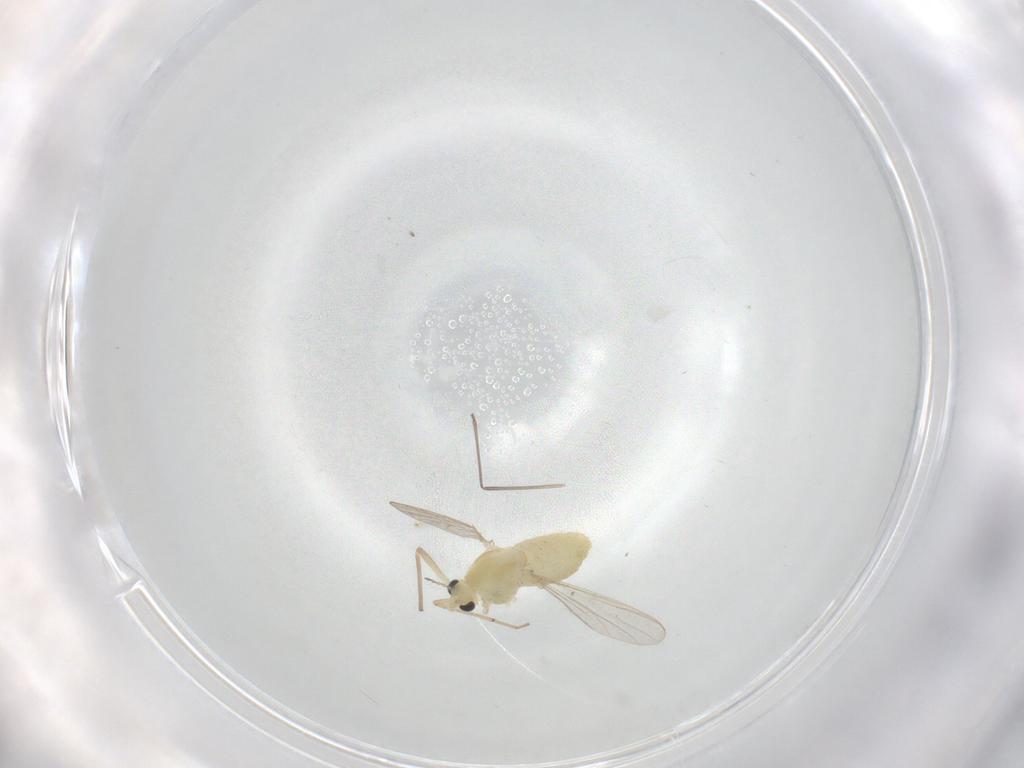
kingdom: Animalia
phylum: Arthropoda
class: Insecta
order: Diptera
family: Chironomidae
